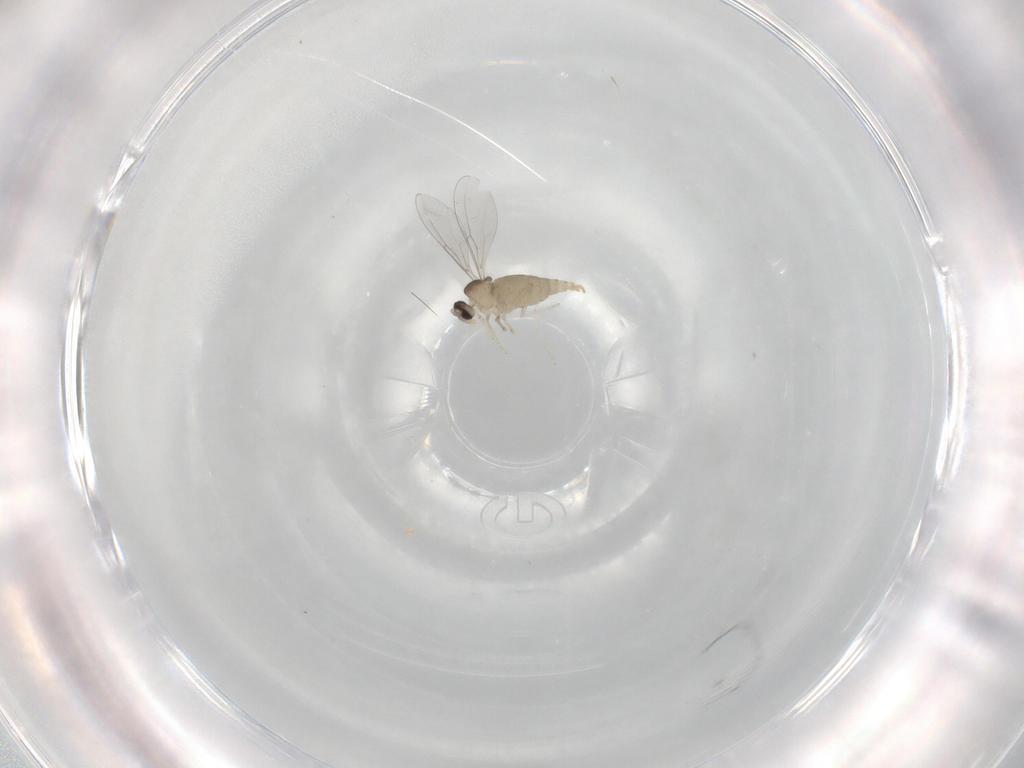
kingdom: Animalia
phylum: Arthropoda
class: Insecta
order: Diptera
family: Cecidomyiidae
